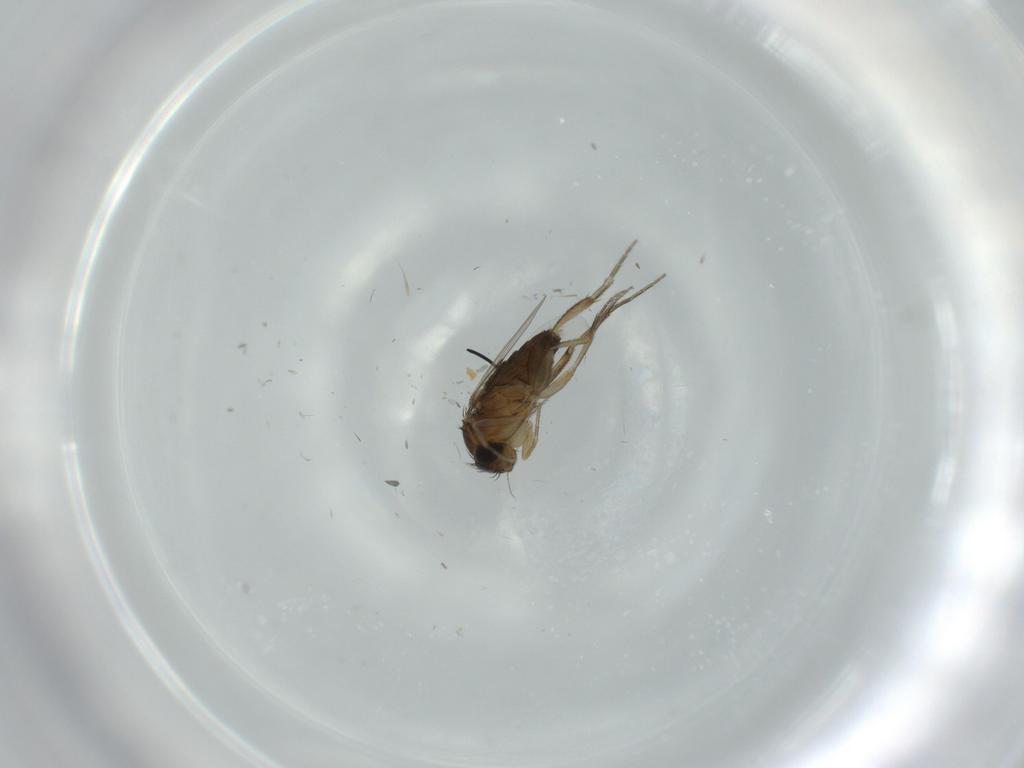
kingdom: Animalia
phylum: Arthropoda
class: Insecta
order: Diptera
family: Phoridae
